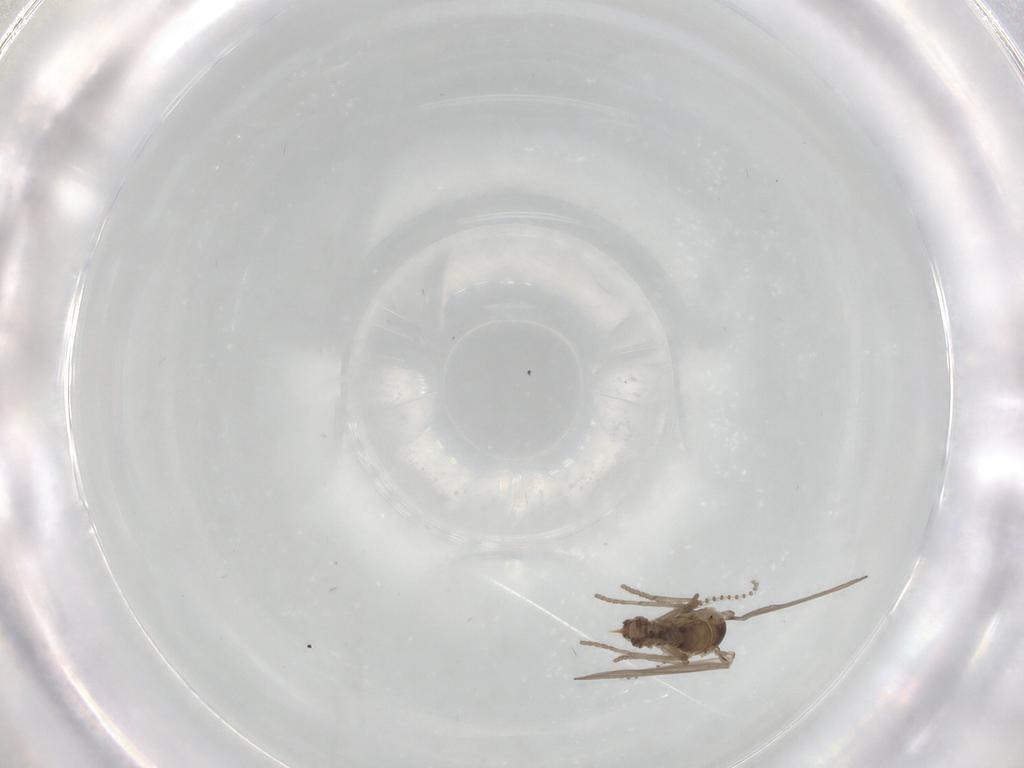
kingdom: Animalia
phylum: Arthropoda
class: Insecta
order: Diptera
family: Psychodidae
